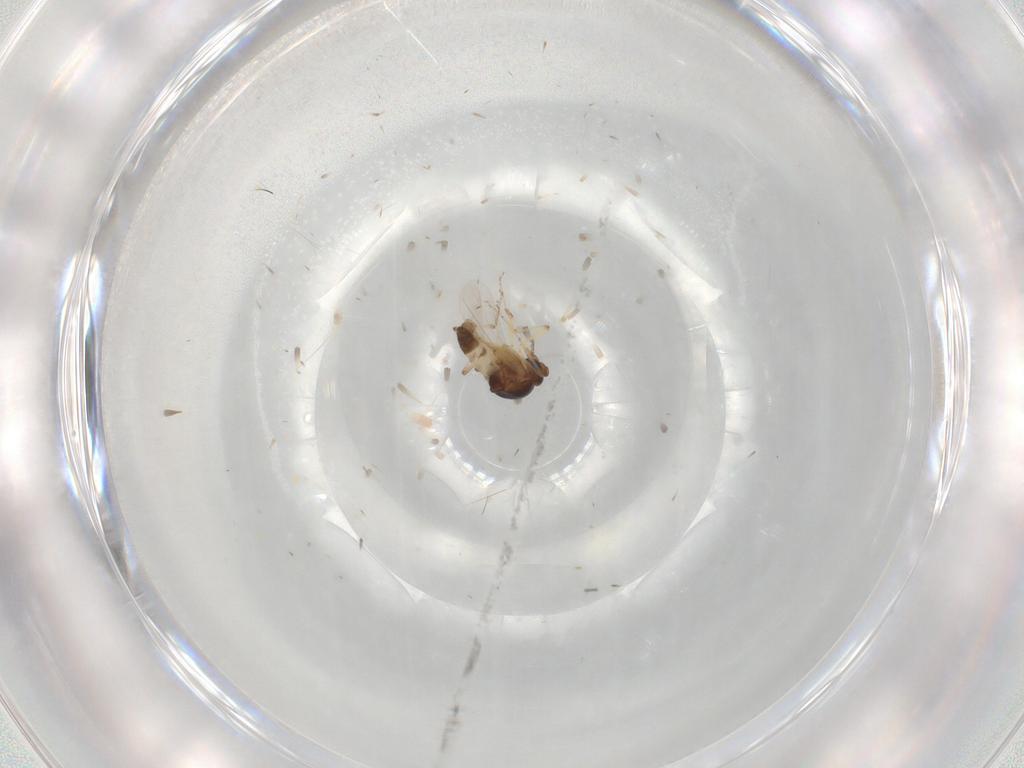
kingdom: Animalia
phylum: Arthropoda
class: Insecta
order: Diptera
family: Ceratopogonidae
